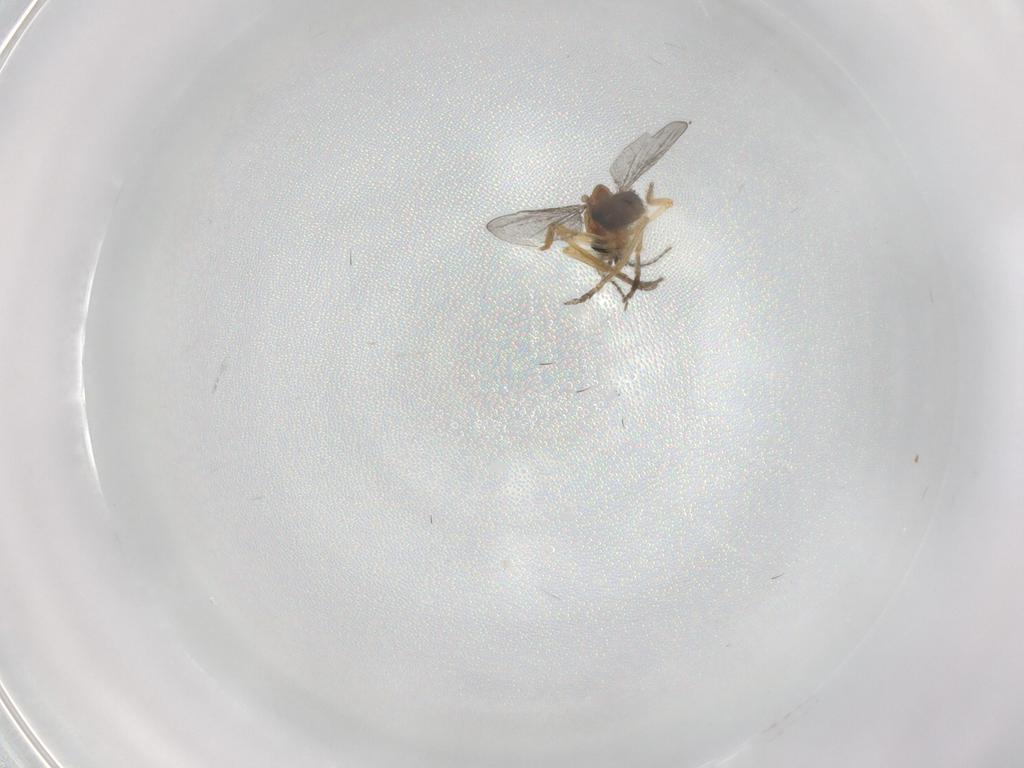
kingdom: Animalia
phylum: Arthropoda
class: Insecta
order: Diptera
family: Ceratopogonidae
